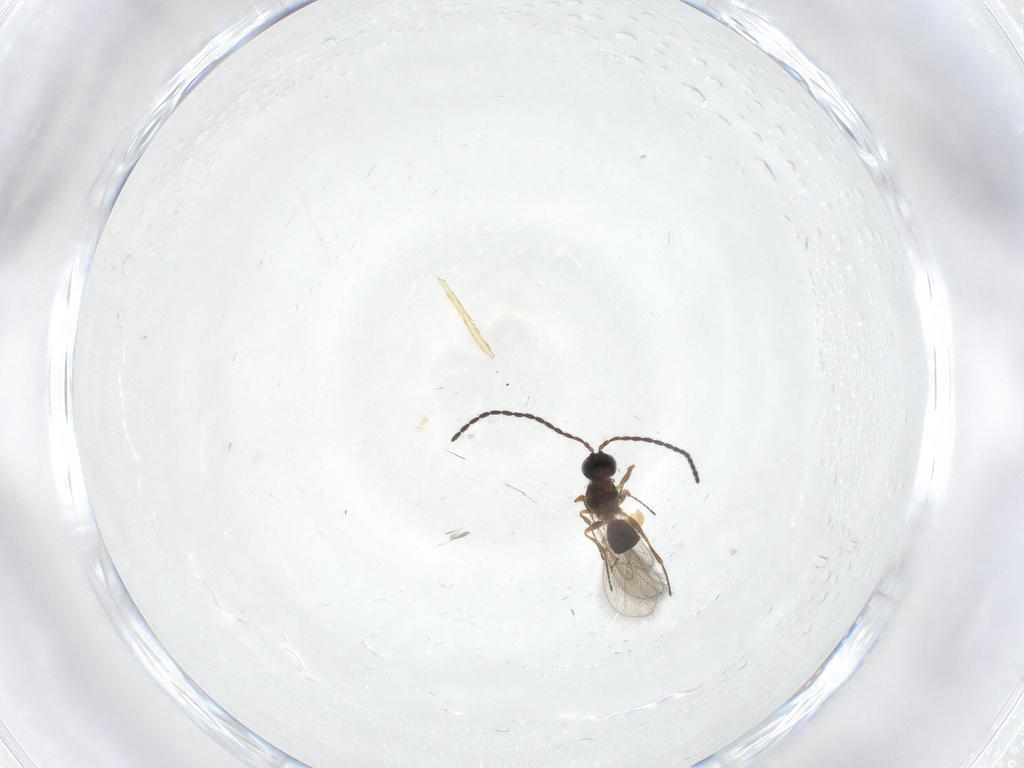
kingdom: Animalia
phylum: Arthropoda
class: Insecta
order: Hymenoptera
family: Figitidae
